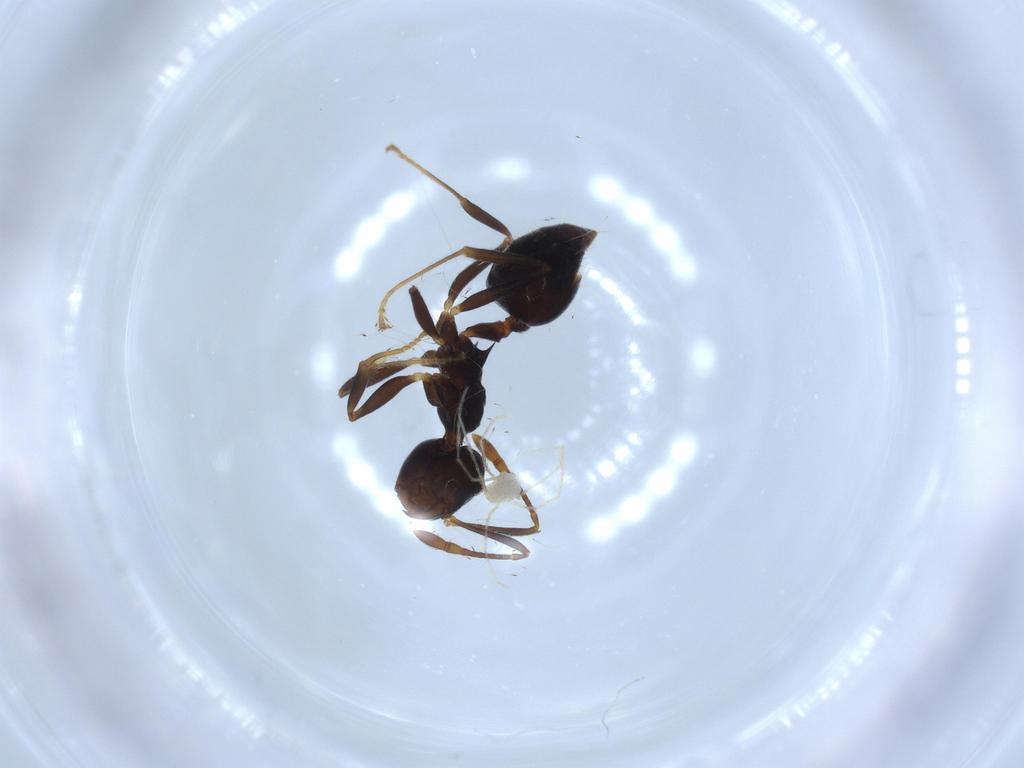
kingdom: Animalia
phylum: Arthropoda
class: Insecta
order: Hymenoptera
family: Formicidae
